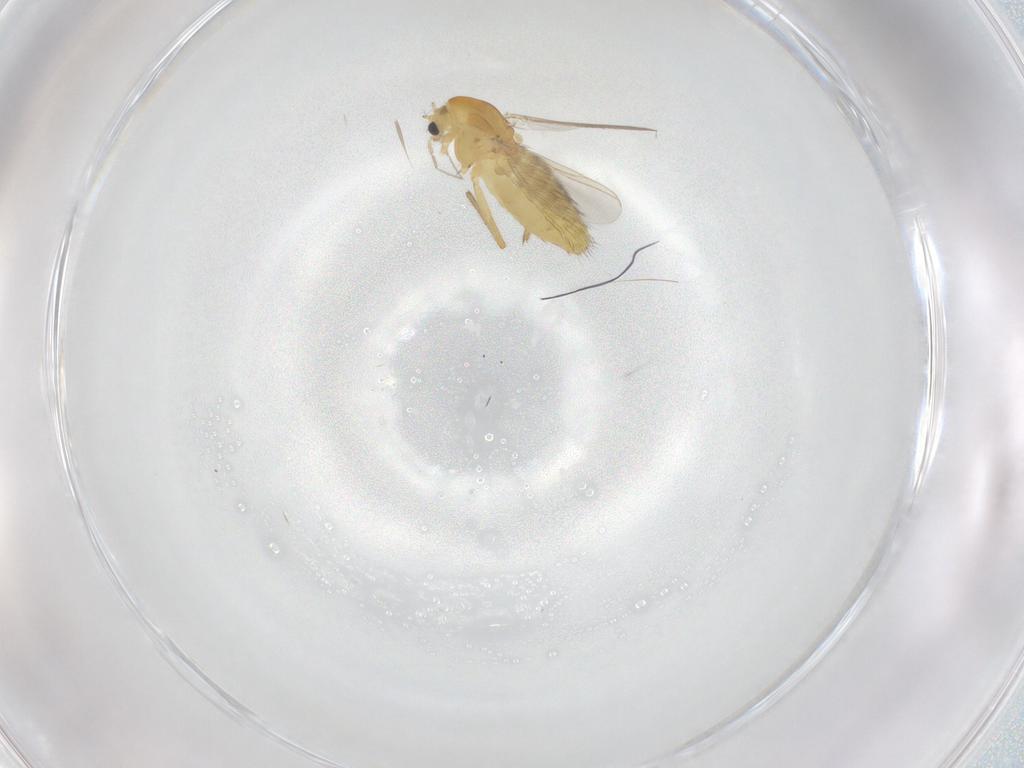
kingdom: Animalia
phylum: Arthropoda
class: Insecta
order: Diptera
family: Chironomidae
